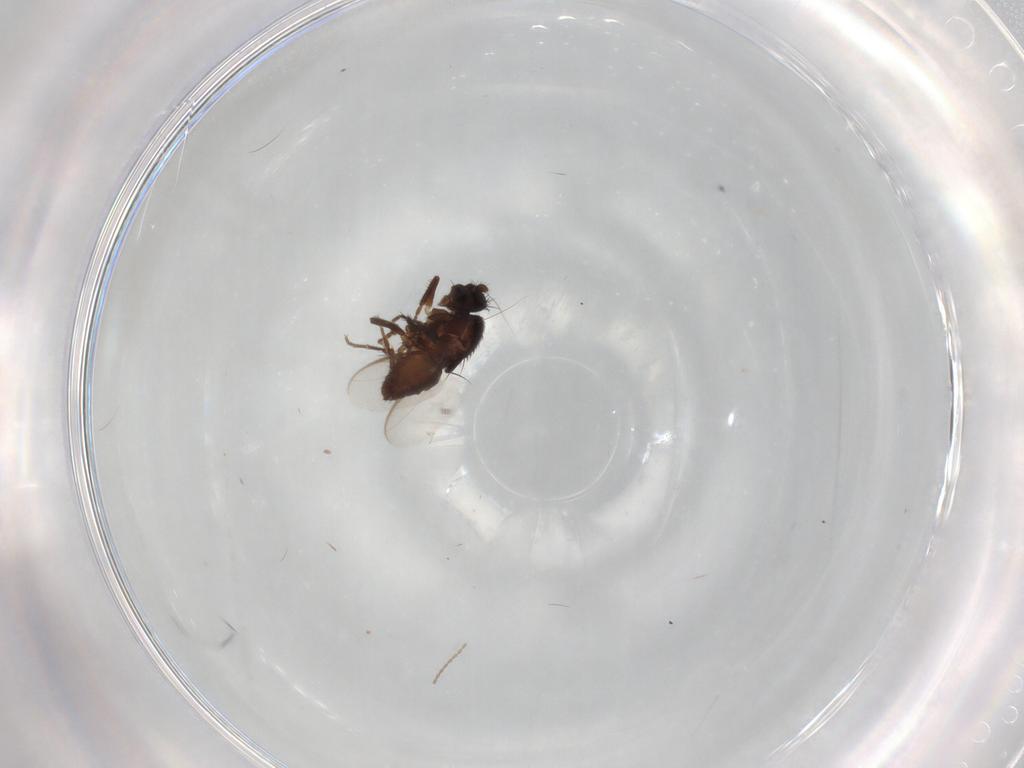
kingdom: Animalia
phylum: Arthropoda
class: Insecta
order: Diptera
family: Sphaeroceridae
